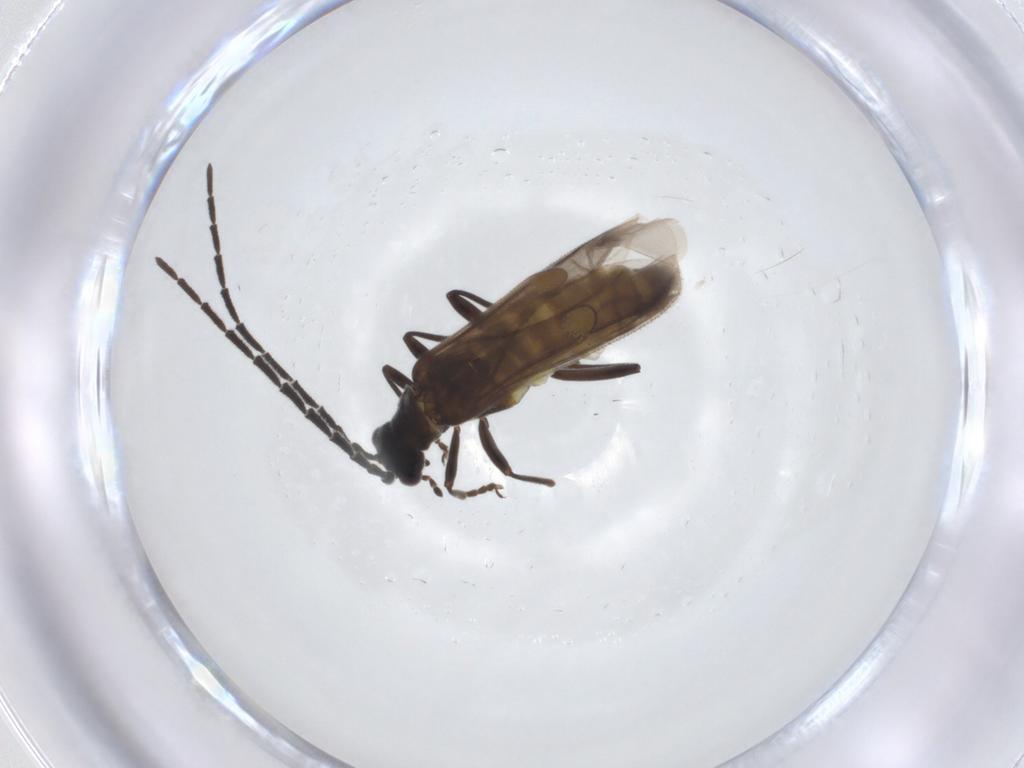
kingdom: Animalia
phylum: Arthropoda
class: Insecta
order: Coleoptera
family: Cantharidae
